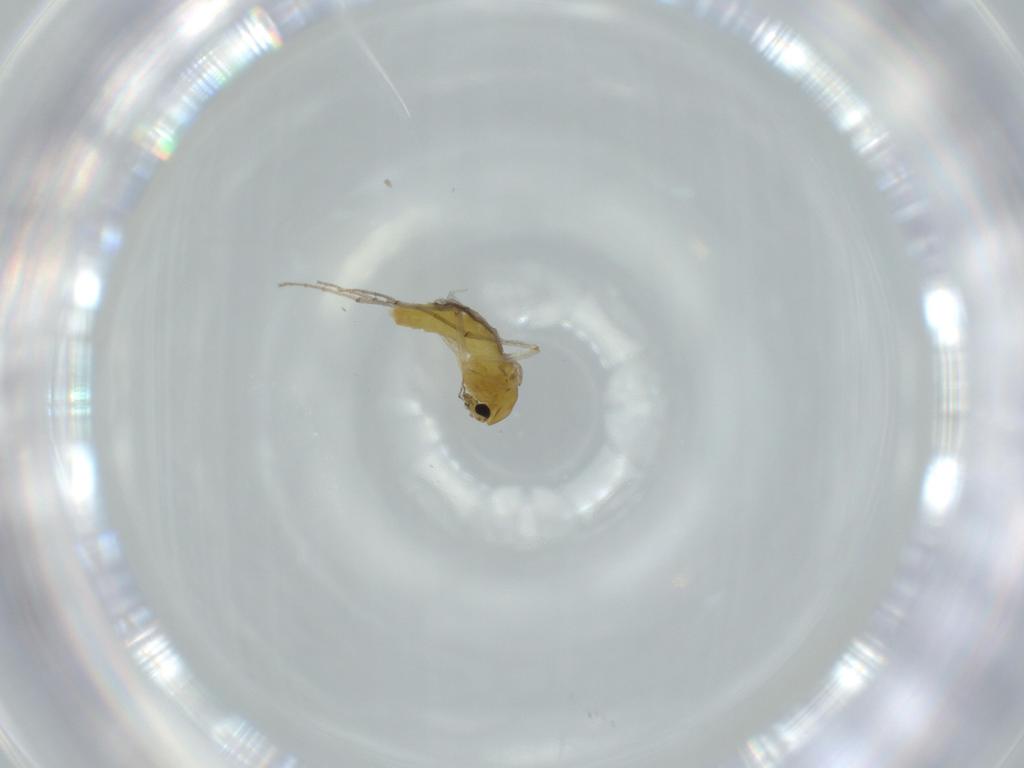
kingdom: Animalia
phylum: Arthropoda
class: Insecta
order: Diptera
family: Chironomidae
